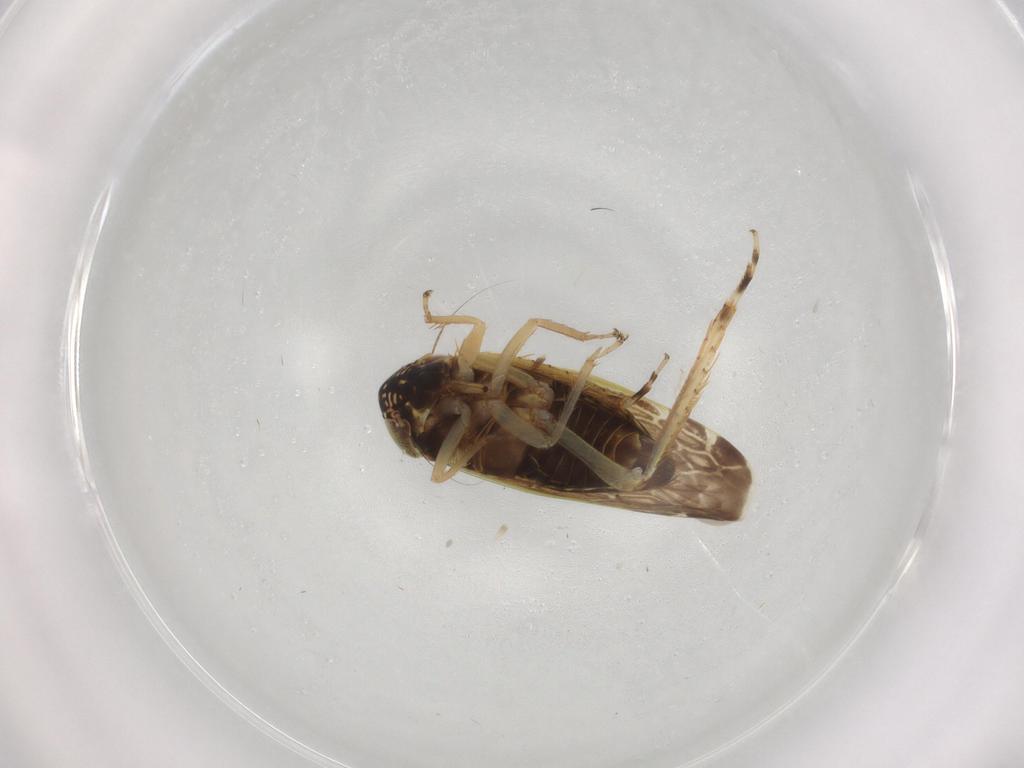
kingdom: Animalia
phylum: Arthropoda
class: Insecta
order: Hemiptera
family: Cicadellidae
